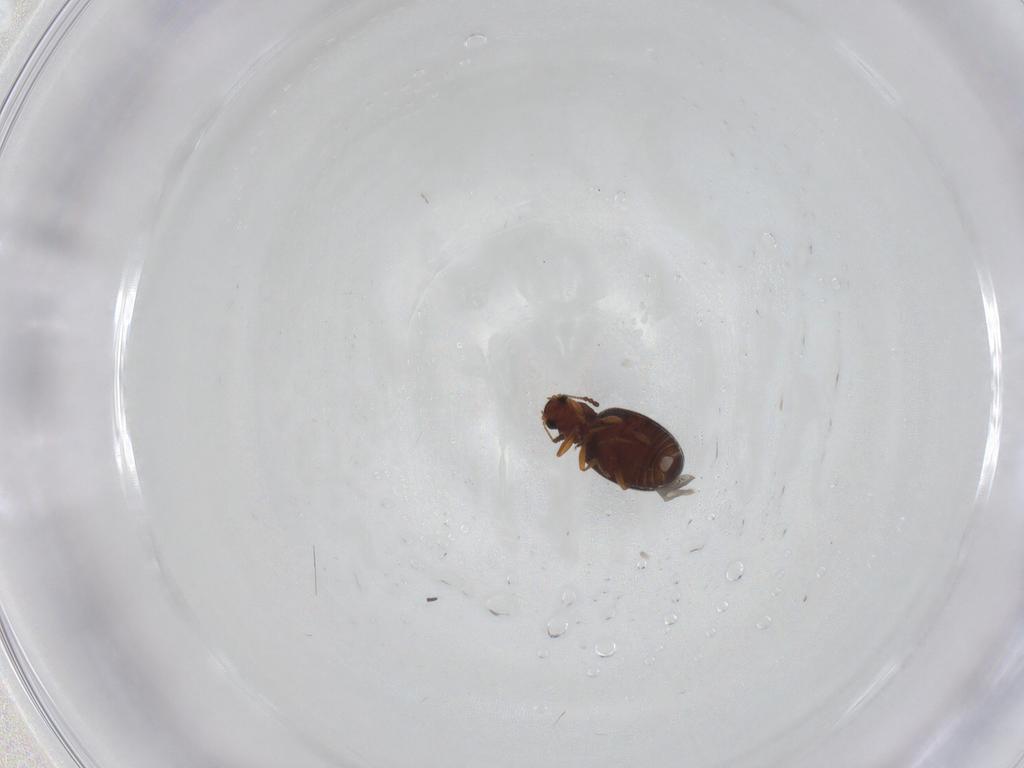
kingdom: Animalia
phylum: Arthropoda
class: Insecta
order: Coleoptera
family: Latridiidae
